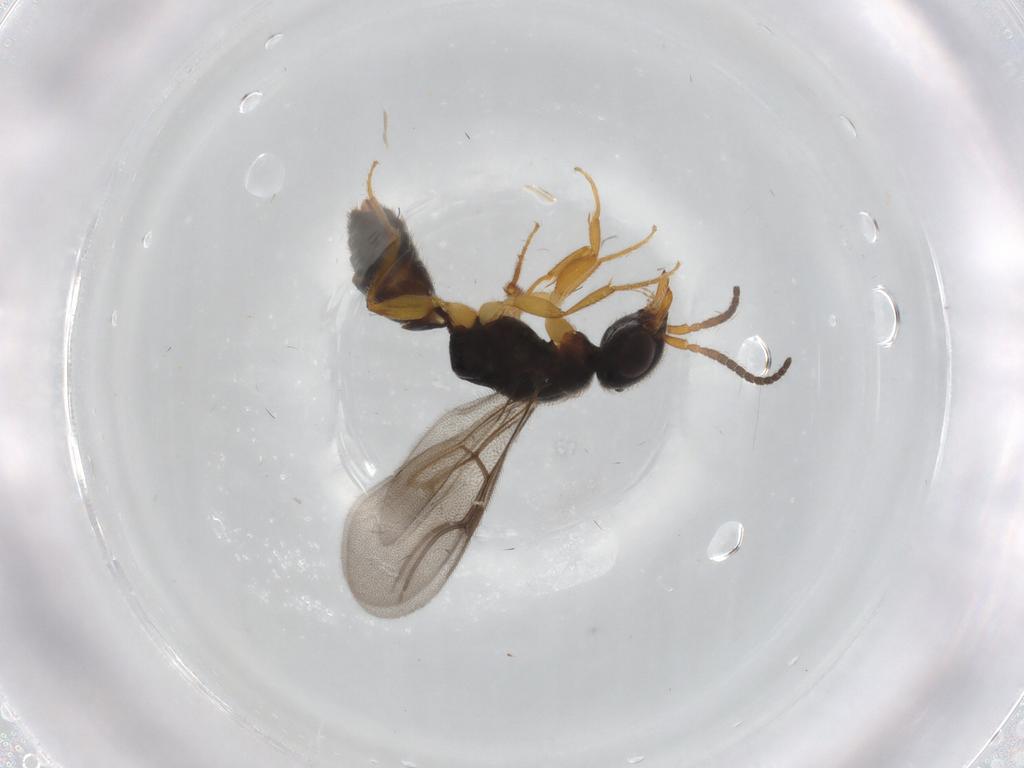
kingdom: Animalia
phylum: Arthropoda
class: Insecta
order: Hymenoptera
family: Bethylidae
